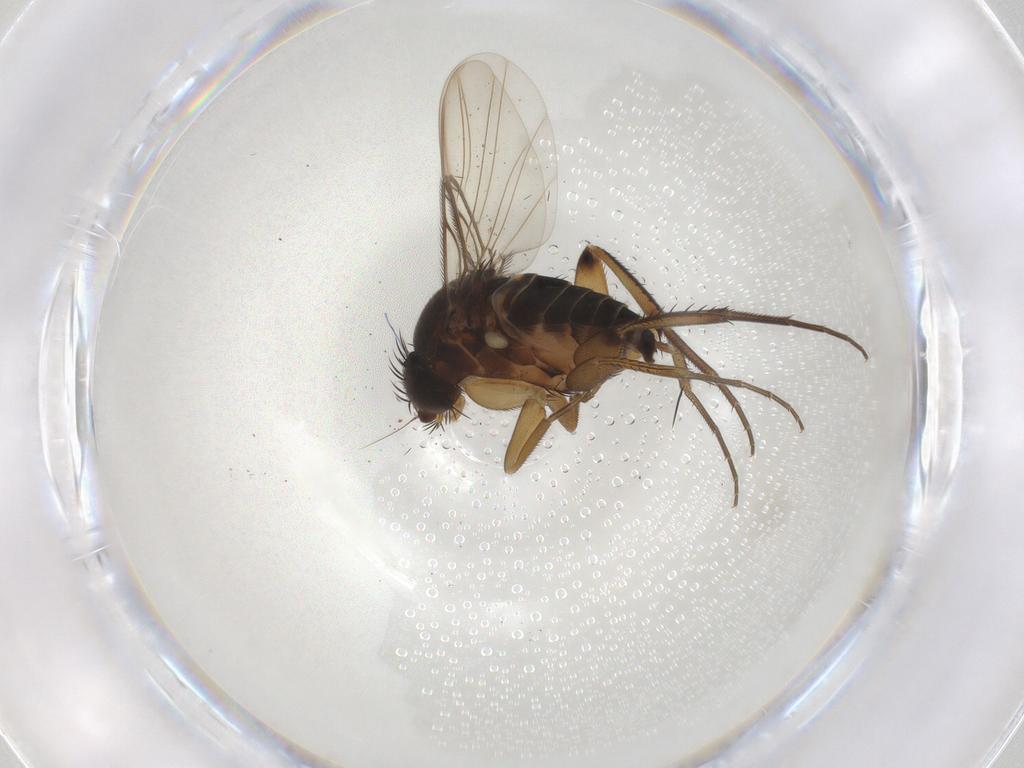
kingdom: Animalia
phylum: Arthropoda
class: Insecta
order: Diptera
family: Phoridae
